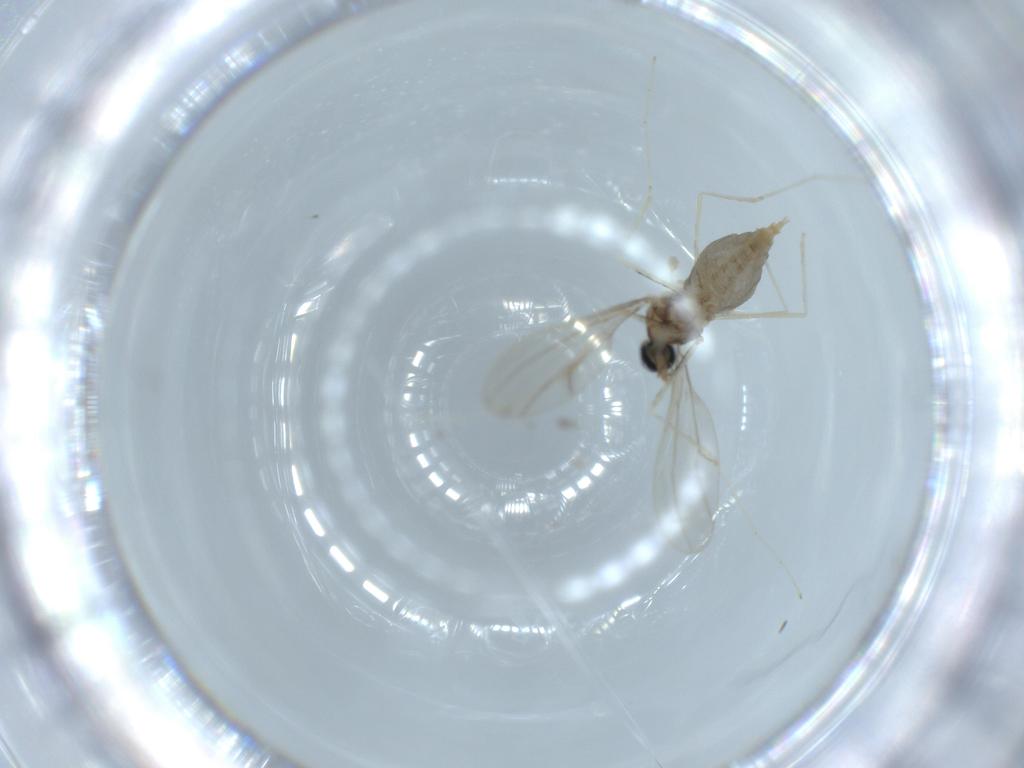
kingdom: Animalia
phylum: Arthropoda
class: Insecta
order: Diptera
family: Cecidomyiidae
